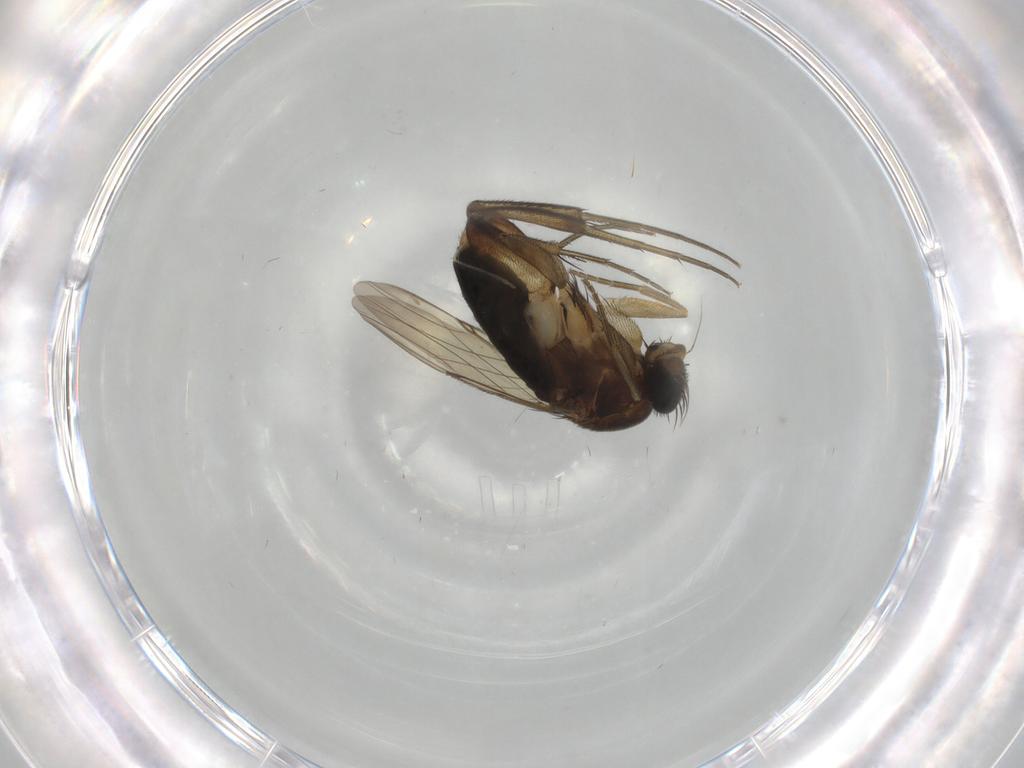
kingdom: Animalia
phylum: Arthropoda
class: Insecta
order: Diptera
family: Phoridae
